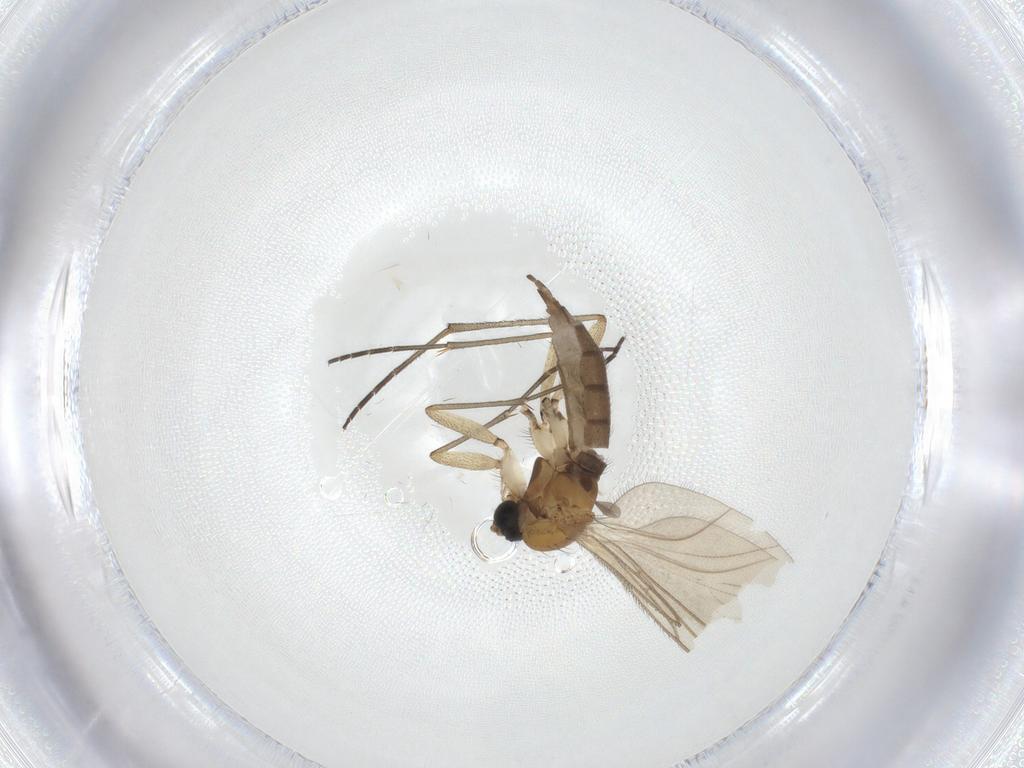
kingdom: Animalia
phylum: Arthropoda
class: Insecta
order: Diptera
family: Sciaridae
